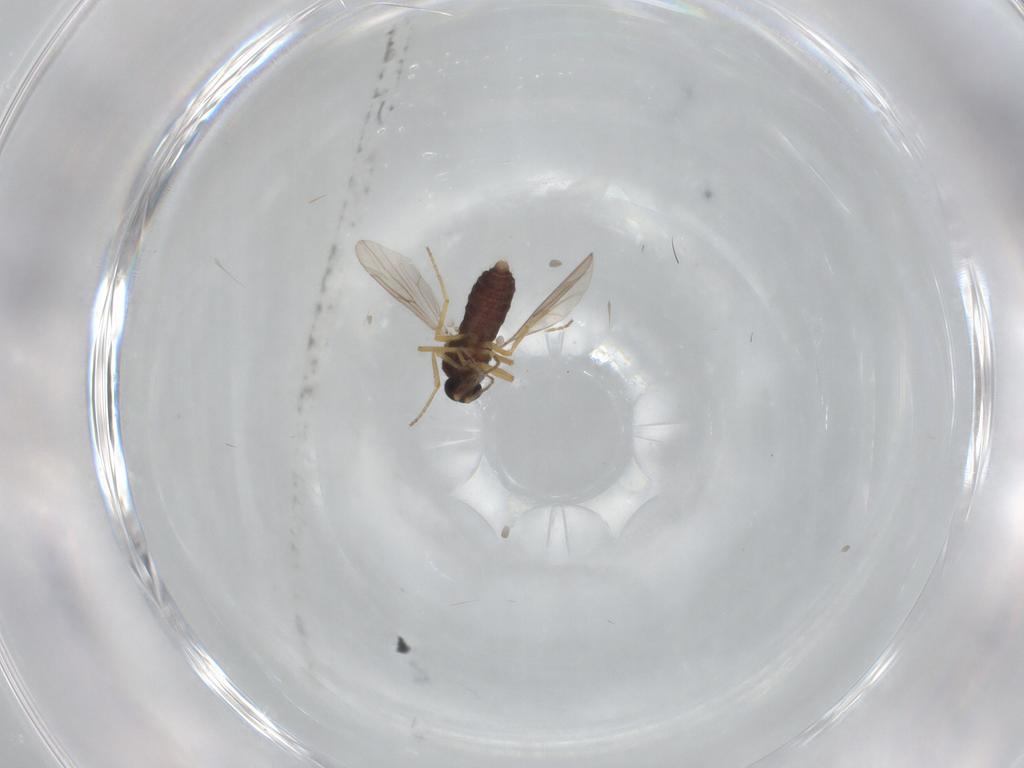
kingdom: Animalia
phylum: Arthropoda
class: Insecta
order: Diptera
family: Ceratopogonidae
